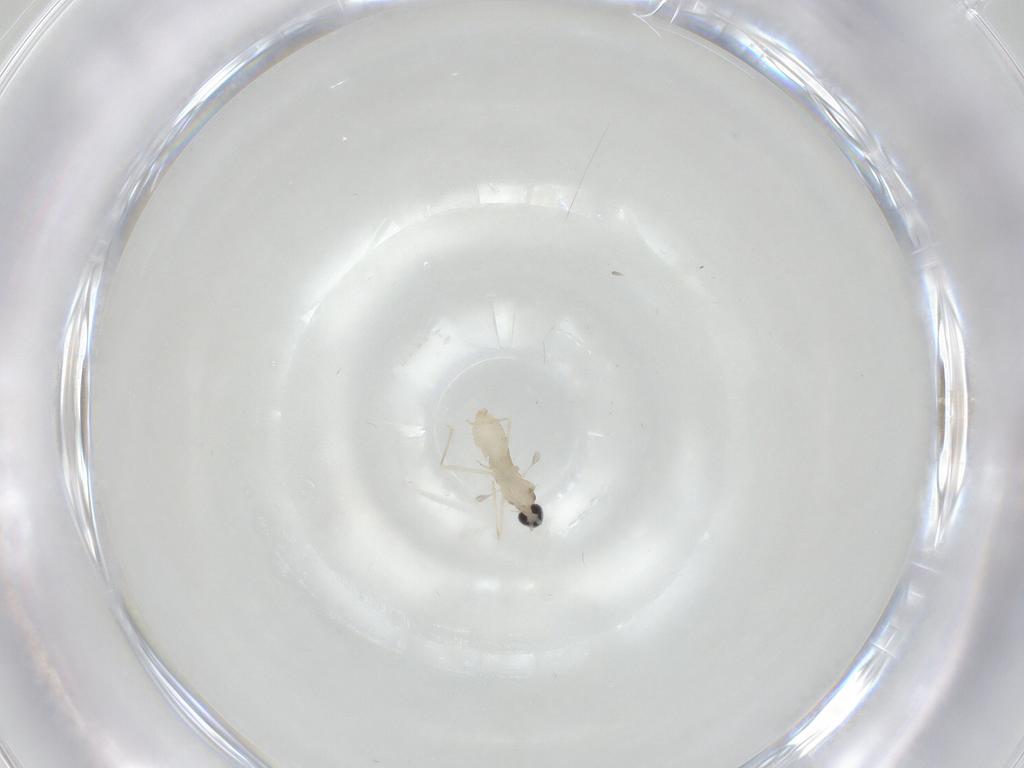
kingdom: Animalia
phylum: Arthropoda
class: Insecta
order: Diptera
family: Cecidomyiidae
